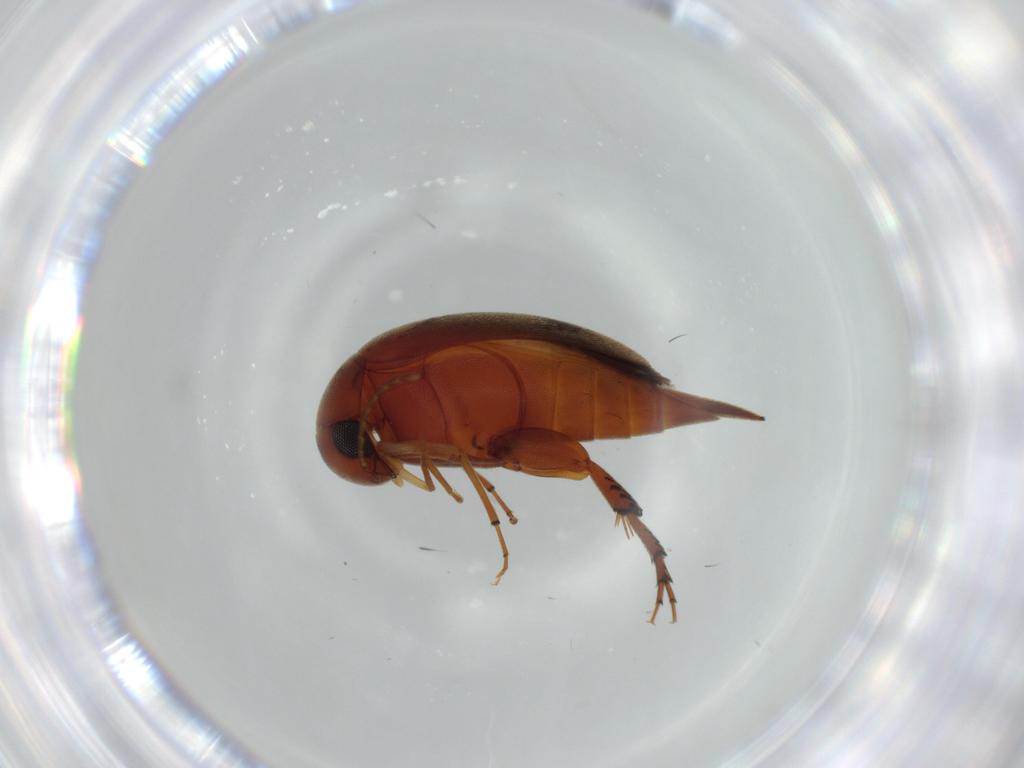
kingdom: Animalia
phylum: Arthropoda
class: Insecta
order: Coleoptera
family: Mordellidae
